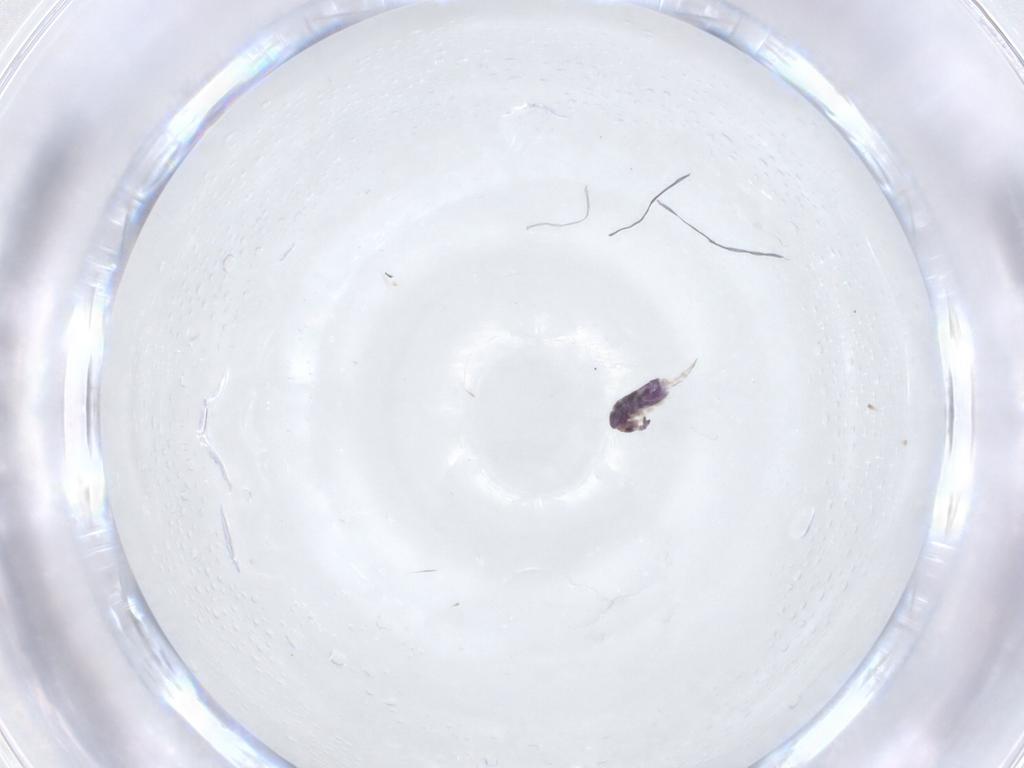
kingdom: Animalia
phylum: Arthropoda
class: Collembola
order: Entomobryomorpha
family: Entomobryidae
